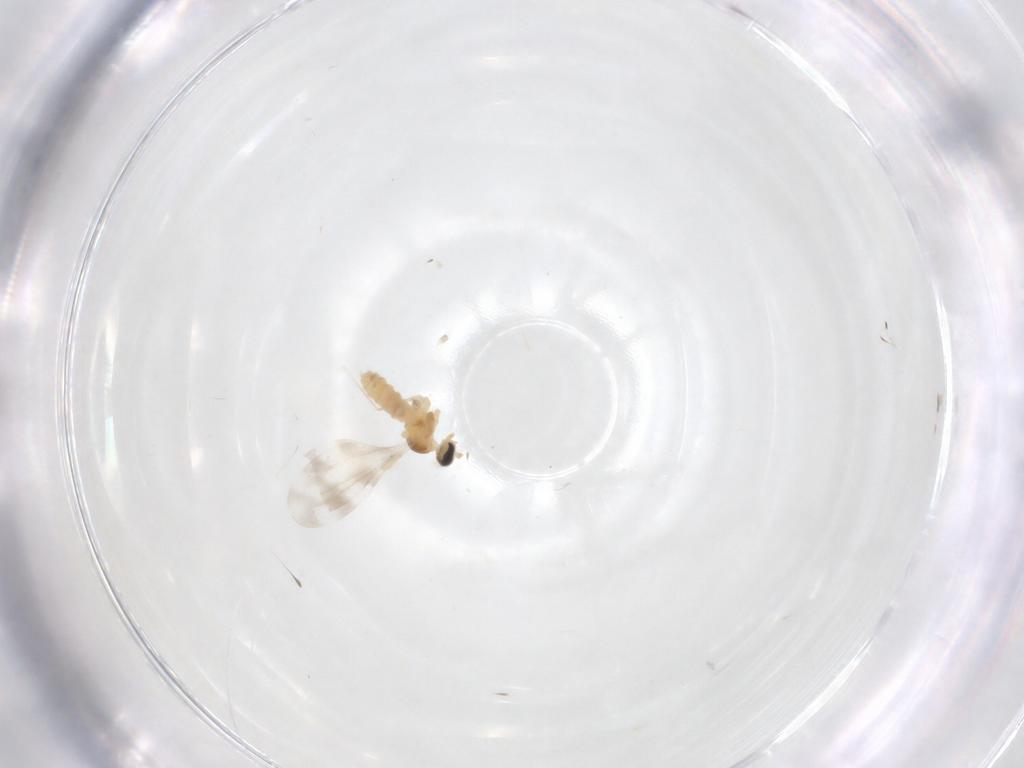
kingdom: Animalia
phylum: Arthropoda
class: Insecta
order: Diptera
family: Cecidomyiidae
